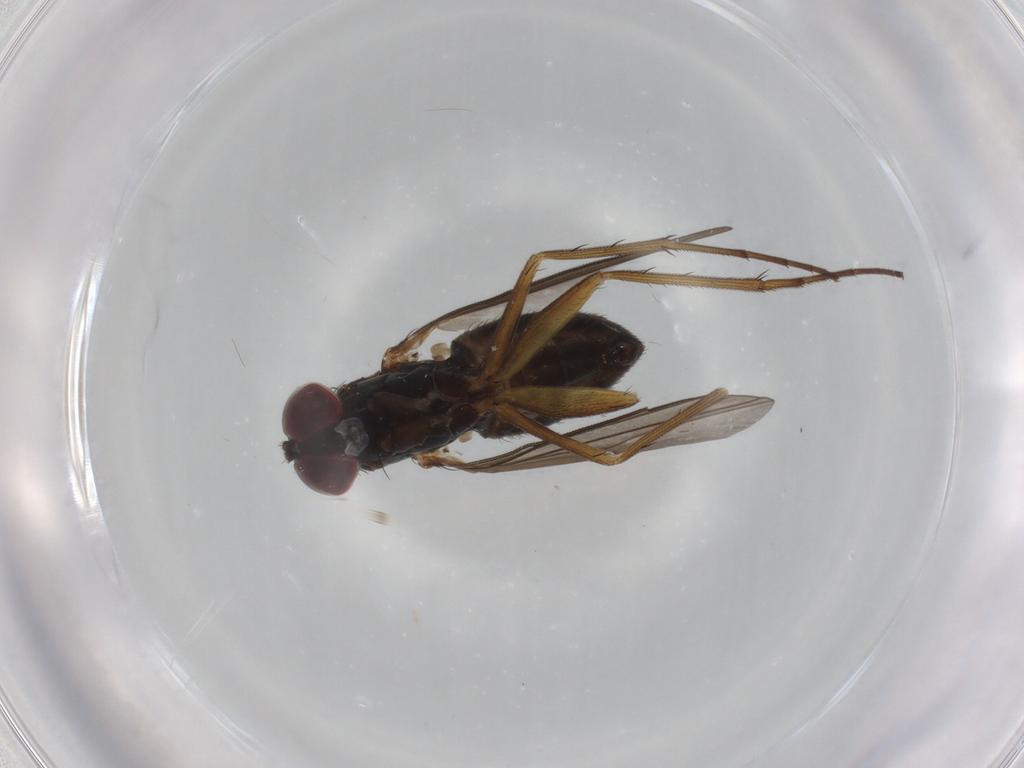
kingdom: Animalia
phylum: Arthropoda
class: Insecta
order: Diptera
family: Dolichopodidae
